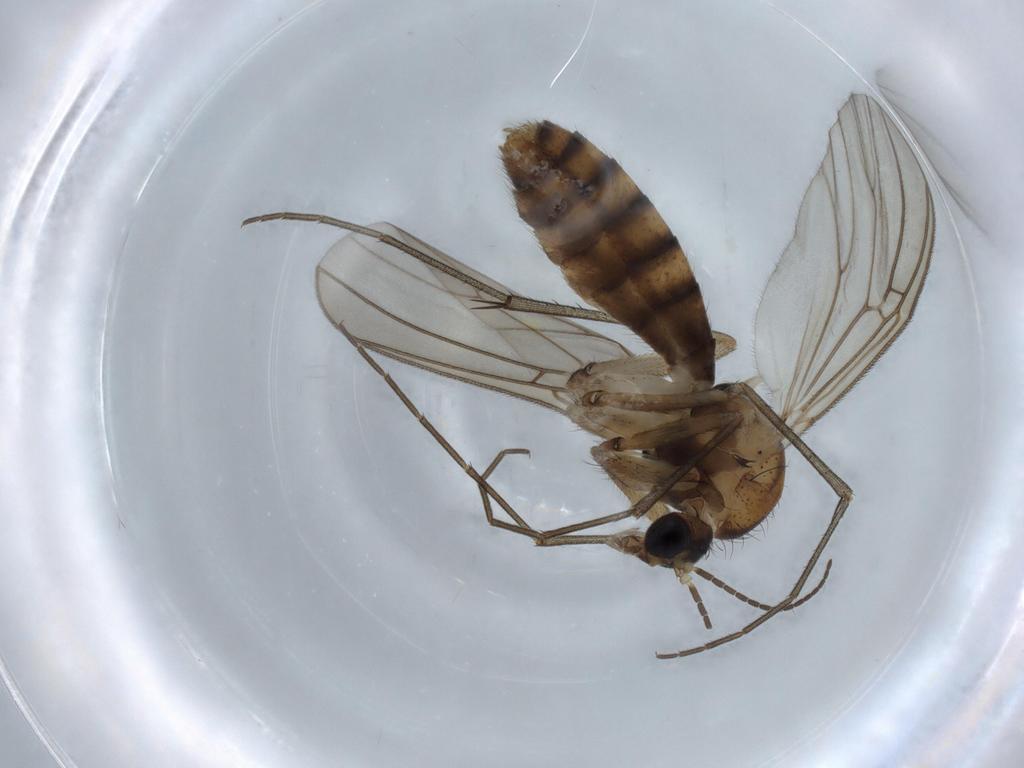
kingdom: Animalia
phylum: Arthropoda
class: Insecta
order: Diptera
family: Mycetophilidae
